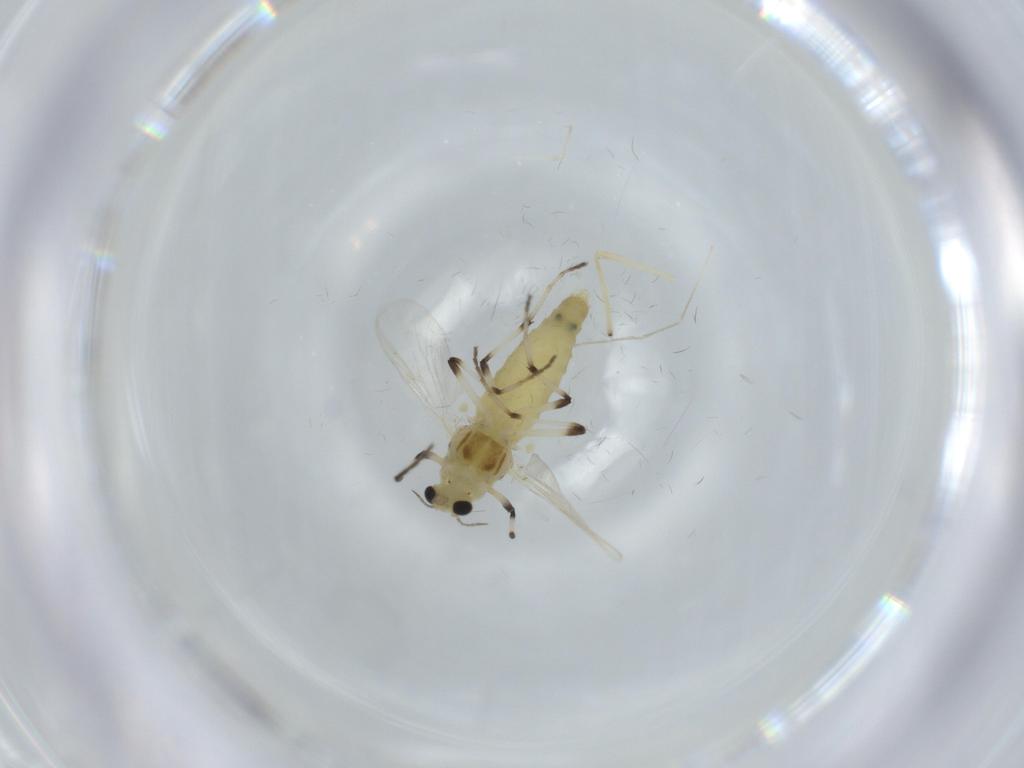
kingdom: Animalia
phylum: Arthropoda
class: Insecta
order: Diptera
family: Chironomidae
